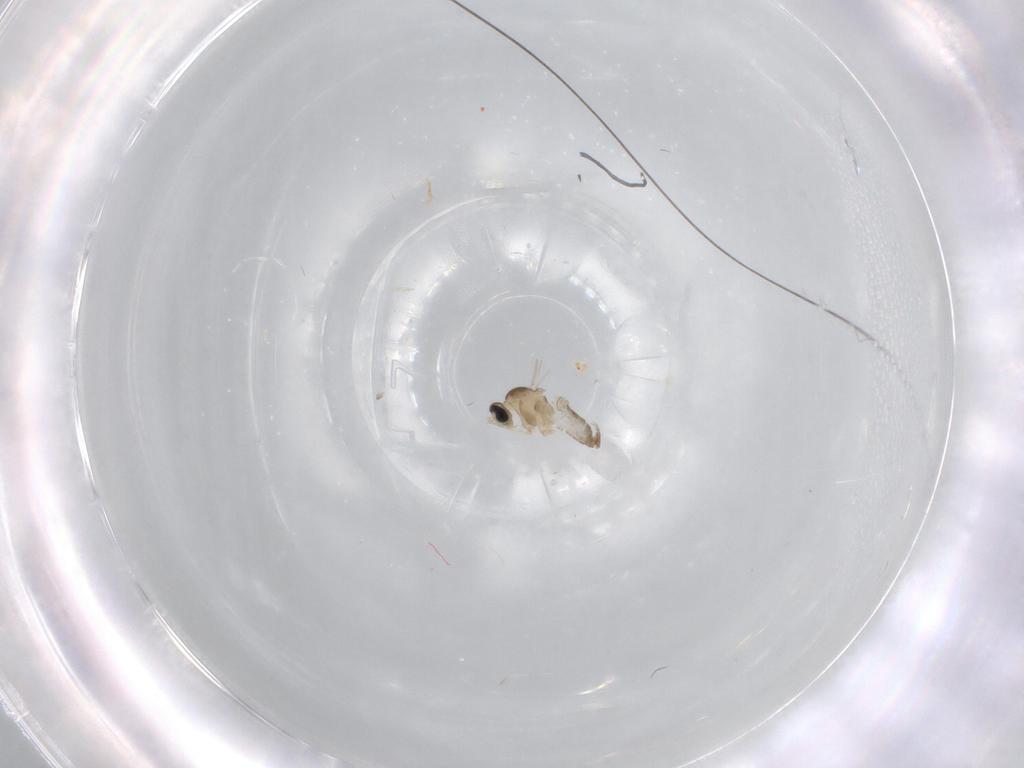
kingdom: Animalia
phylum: Arthropoda
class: Insecta
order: Diptera
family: Cecidomyiidae
